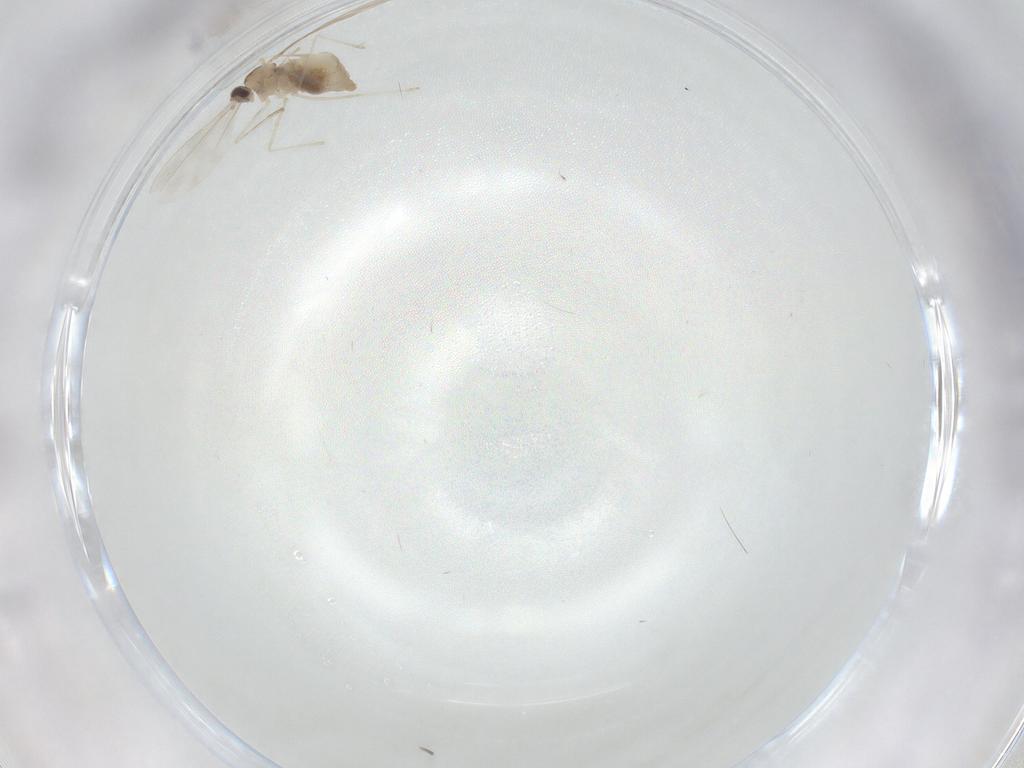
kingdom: Animalia
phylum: Arthropoda
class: Insecta
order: Diptera
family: Cecidomyiidae
